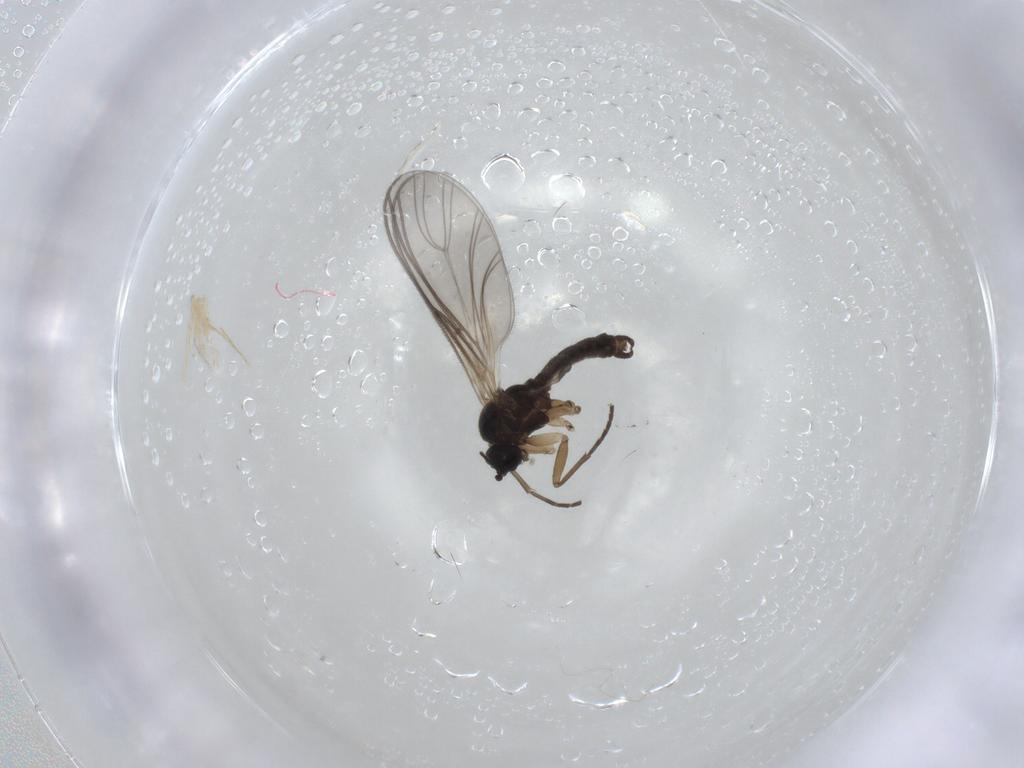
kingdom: Animalia
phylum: Arthropoda
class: Insecta
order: Diptera
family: Sciaridae
